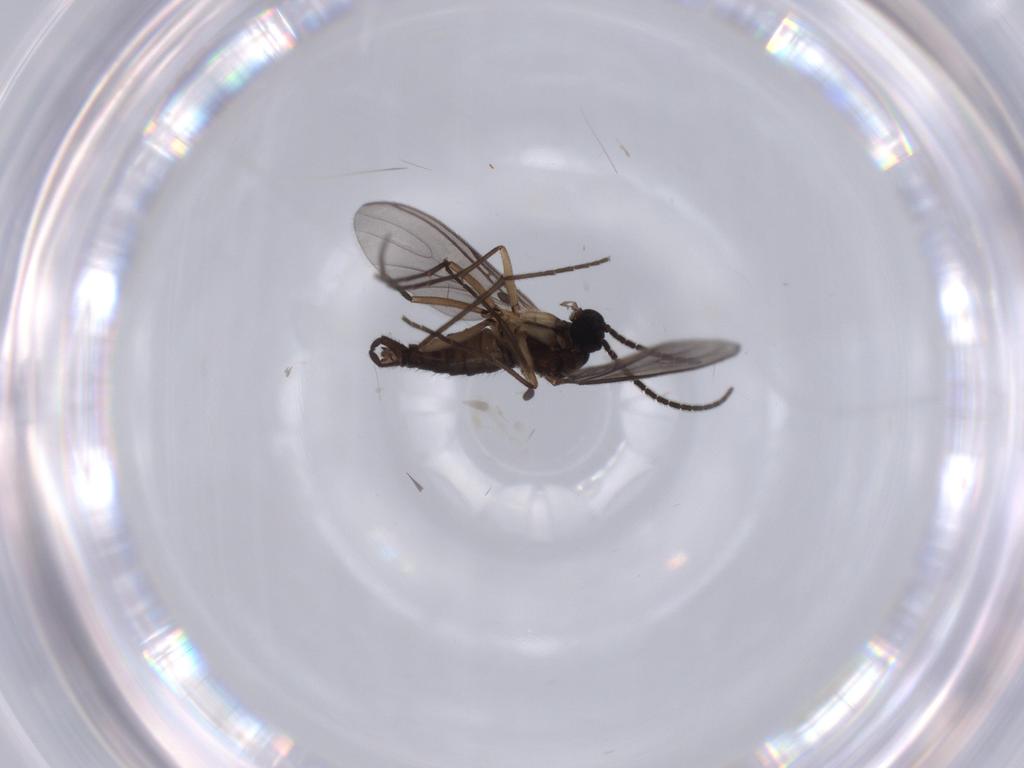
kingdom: Animalia
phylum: Arthropoda
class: Insecta
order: Diptera
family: Sciaridae
